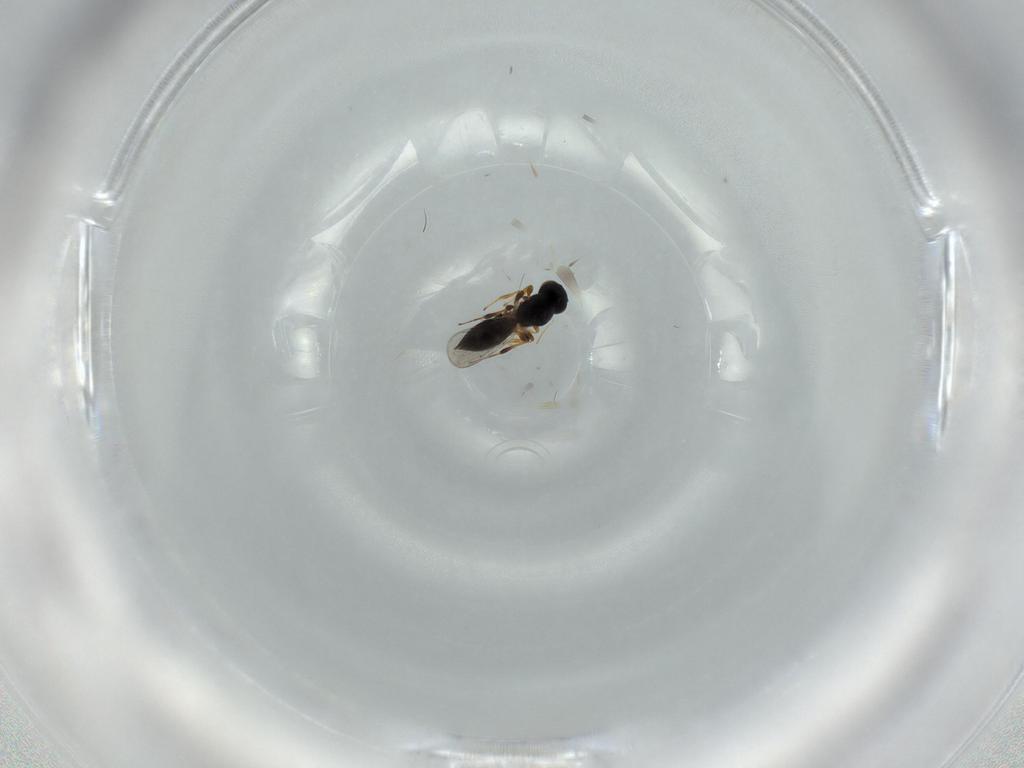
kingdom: Animalia
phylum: Arthropoda
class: Insecta
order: Hymenoptera
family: Platygastridae
